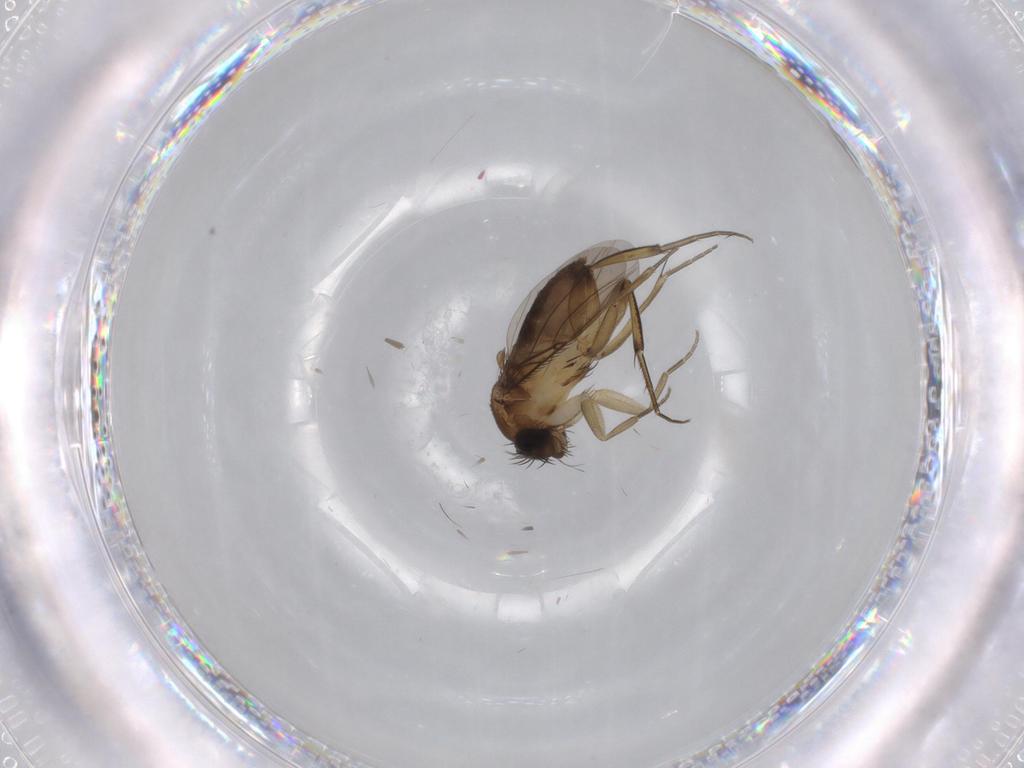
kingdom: Animalia
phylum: Arthropoda
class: Insecta
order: Diptera
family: Phoridae
